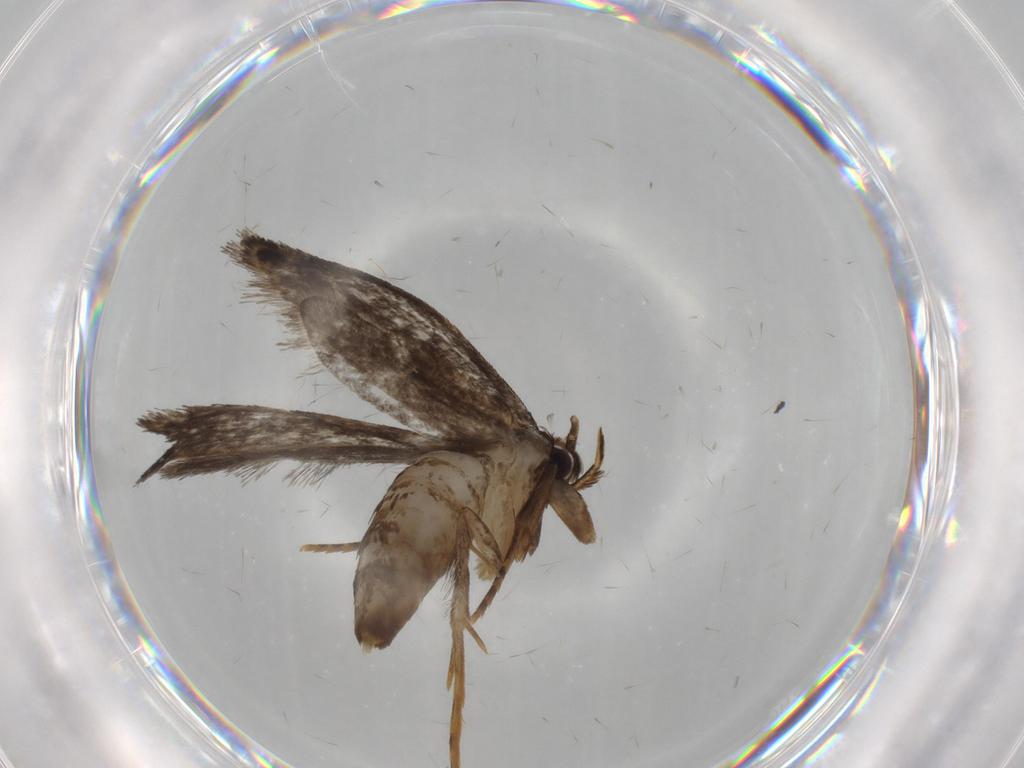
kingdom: Animalia
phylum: Arthropoda
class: Insecta
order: Lepidoptera
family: Tineidae
